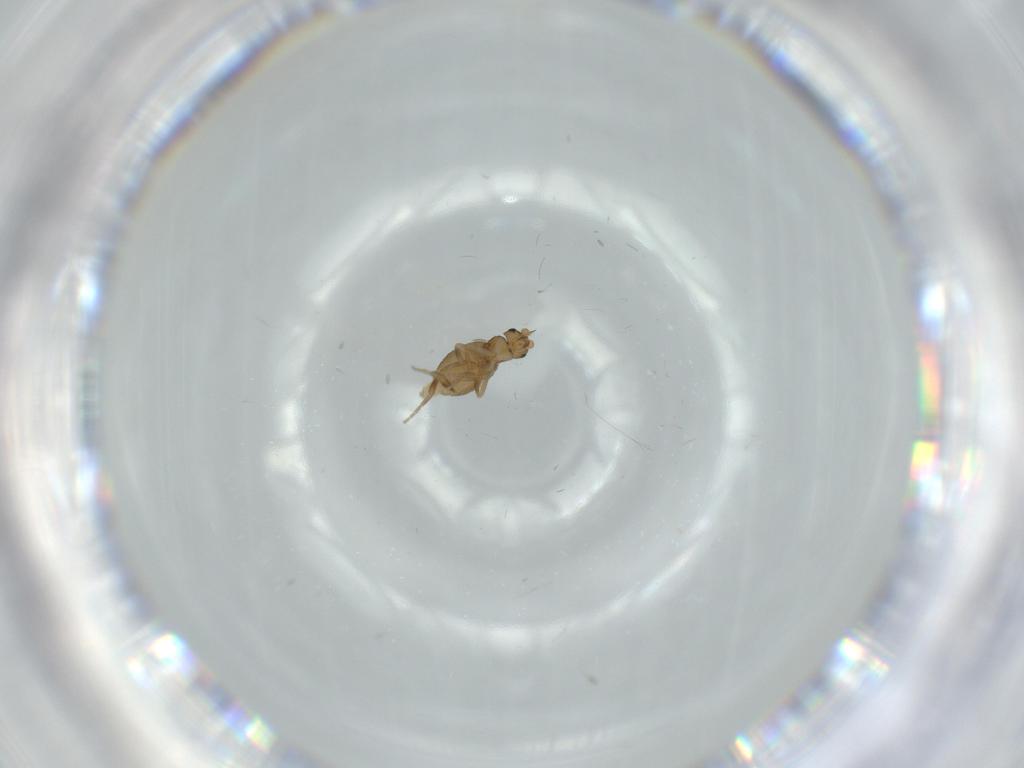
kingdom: Animalia
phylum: Arthropoda
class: Insecta
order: Diptera
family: Phoridae
